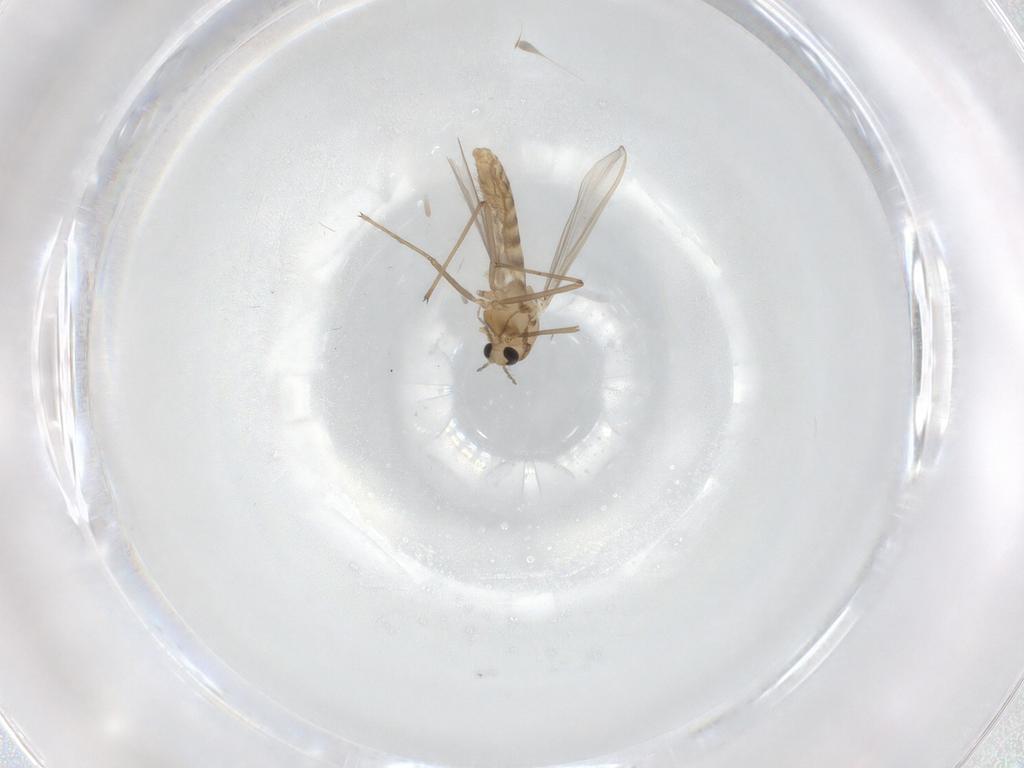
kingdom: Animalia
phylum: Arthropoda
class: Insecta
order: Diptera
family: Chironomidae
